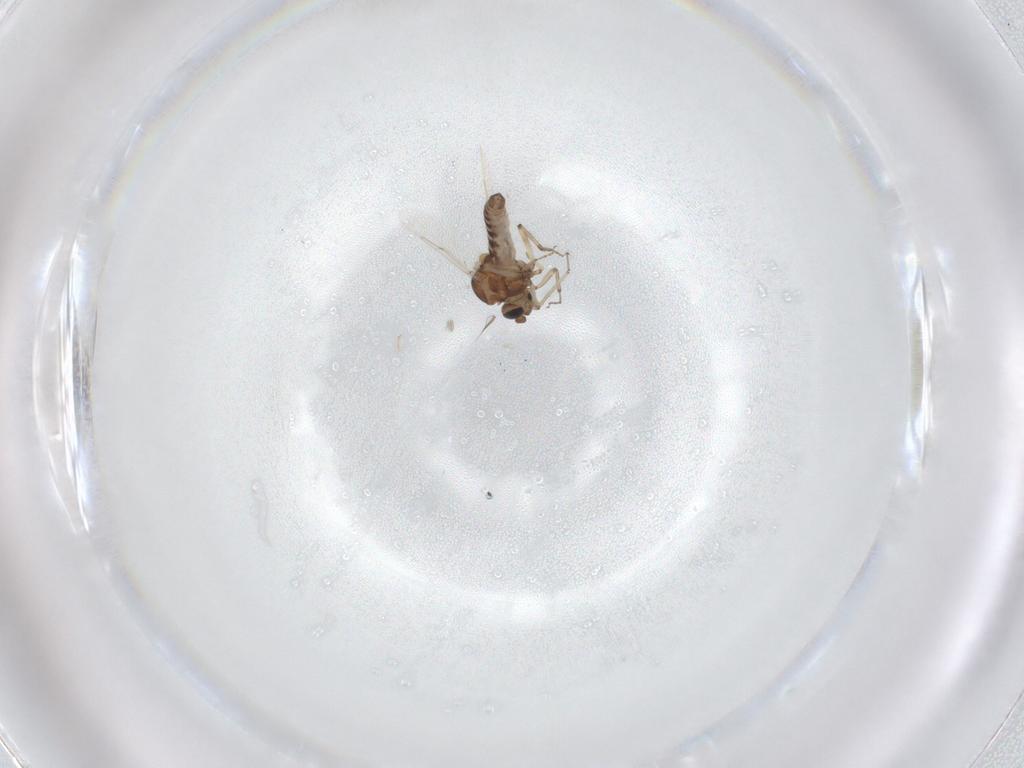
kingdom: Animalia
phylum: Arthropoda
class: Insecta
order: Diptera
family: Ceratopogonidae
